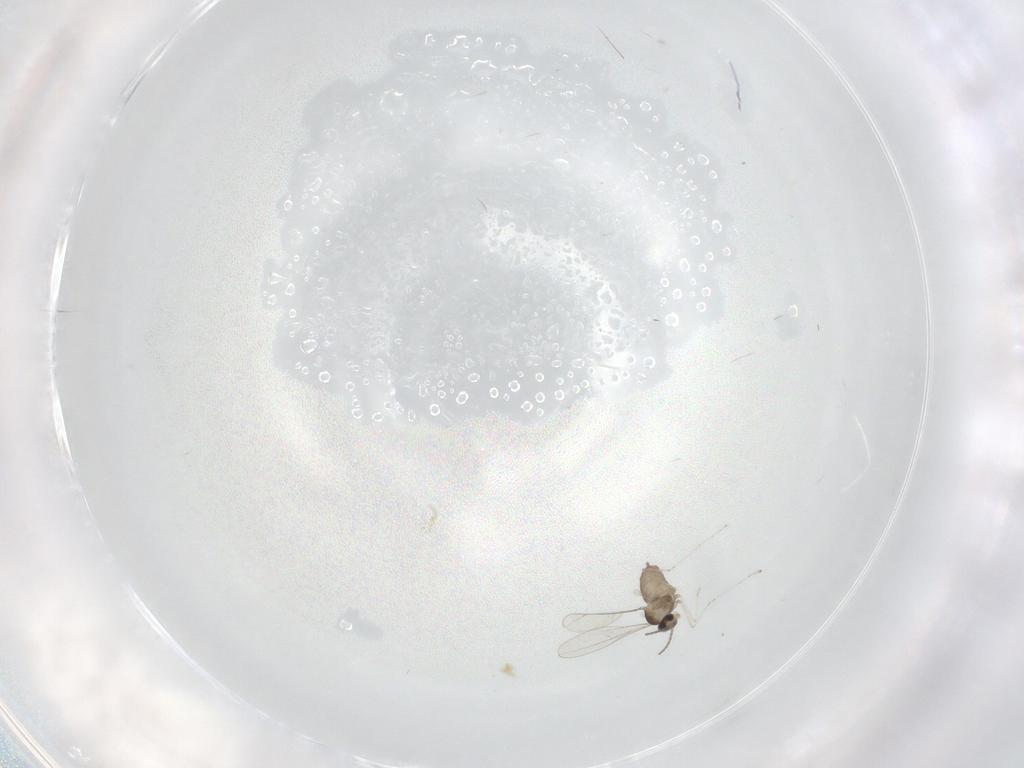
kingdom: Animalia
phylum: Arthropoda
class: Insecta
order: Diptera
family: Cecidomyiidae
